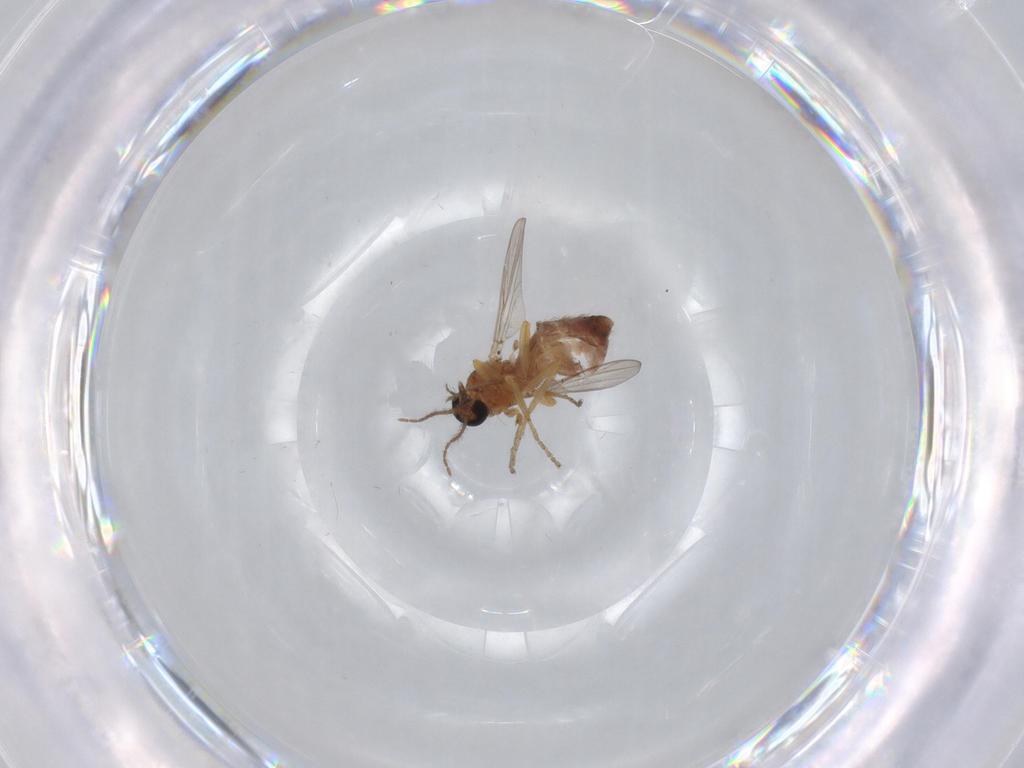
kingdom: Animalia
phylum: Arthropoda
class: Insecta
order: Diptera
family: Ceratopogonidae
